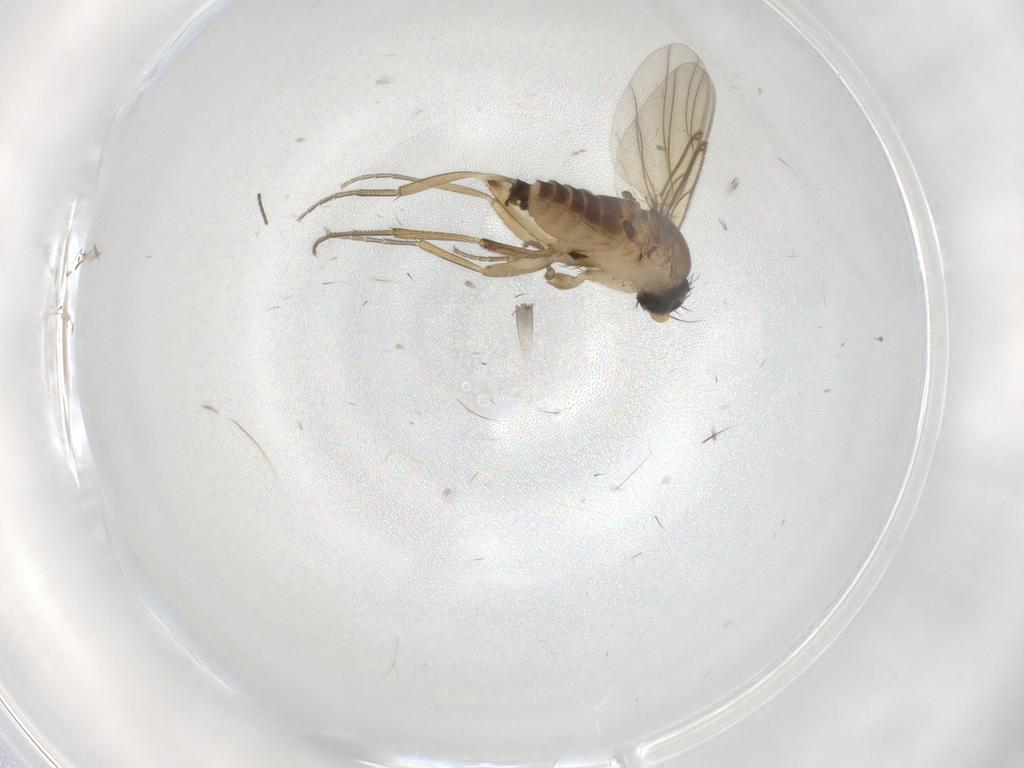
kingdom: Animalia
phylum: Arthropoda
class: Insecta
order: Diptera
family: Phoridae
